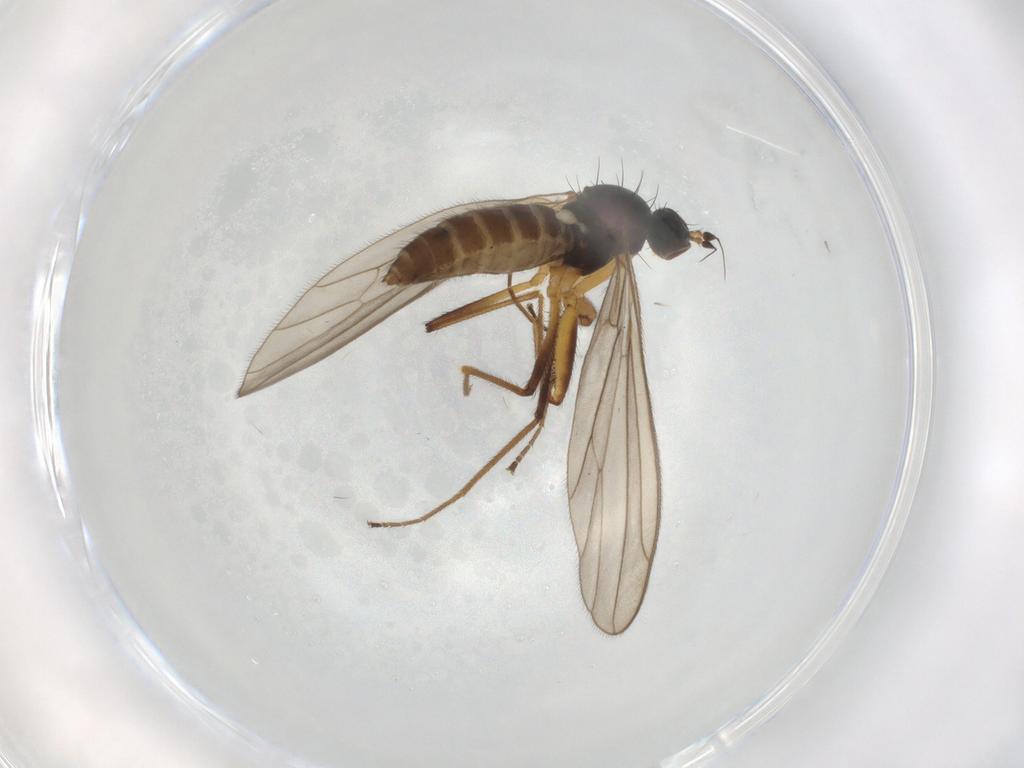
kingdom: Animalia
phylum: Arthropoda
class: Insecta
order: Diptera
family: Empididae
